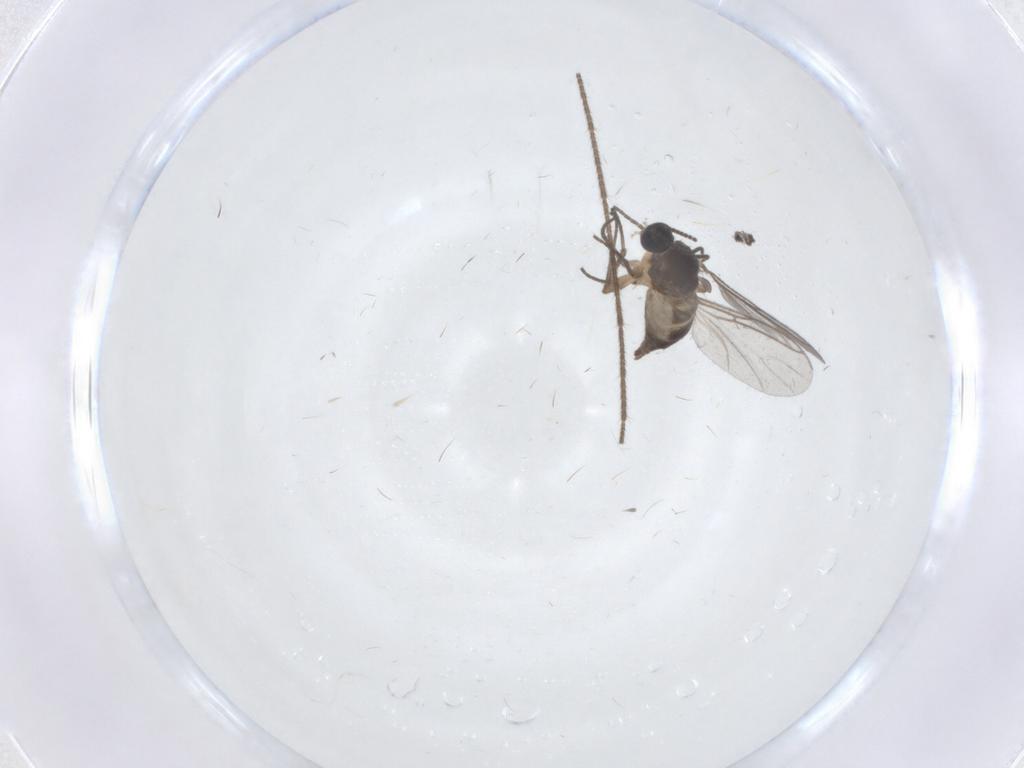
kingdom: Animalia
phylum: Arthropoda
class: Insecta
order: Diptera
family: Sciaridae
